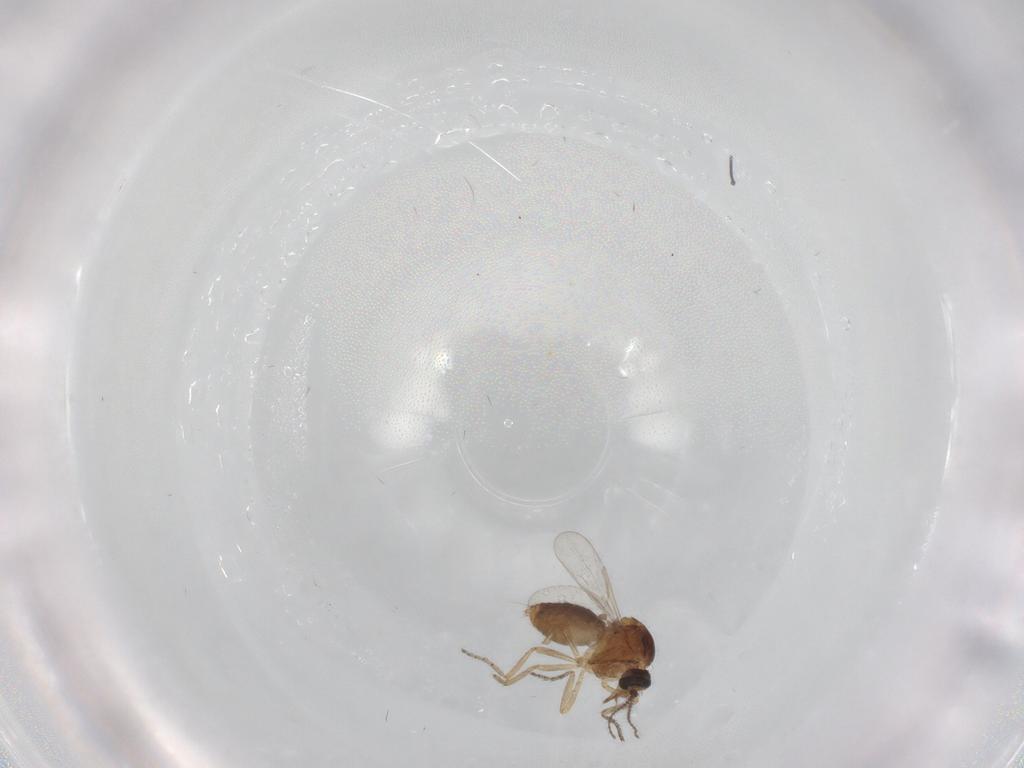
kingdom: Animalia
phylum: Arthropoda
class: Insecta
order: Diptera
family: Ceratopogonidae
